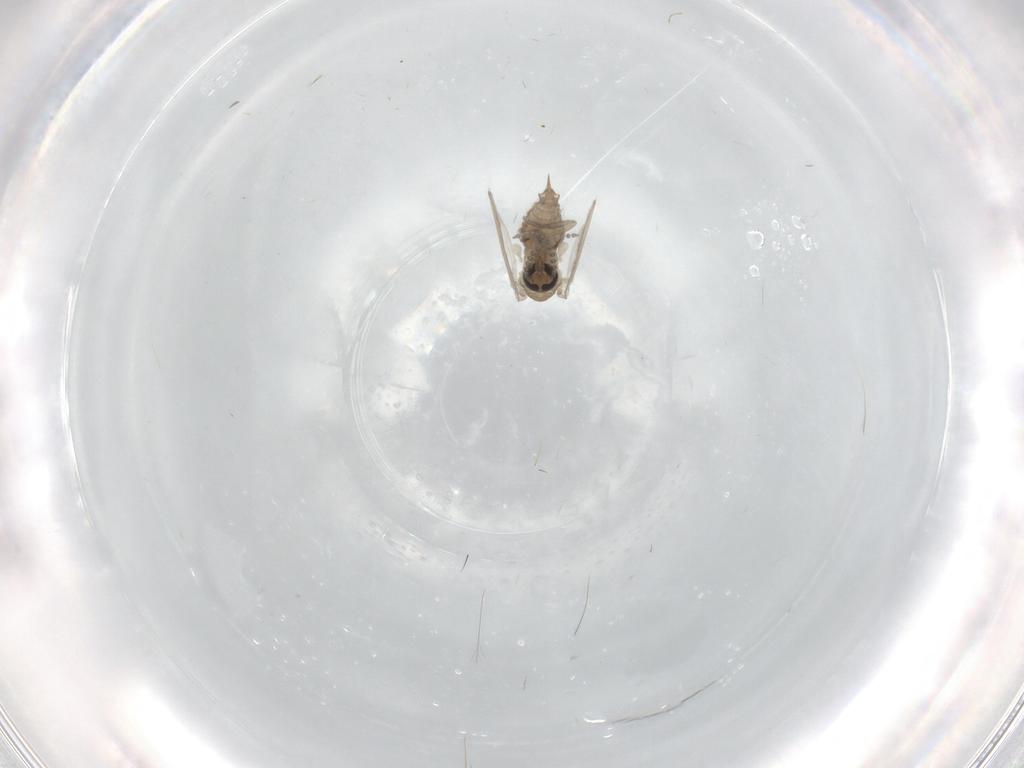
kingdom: Animalia
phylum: Arthropoda
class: Insecta
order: Diptera
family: Psychodidae
